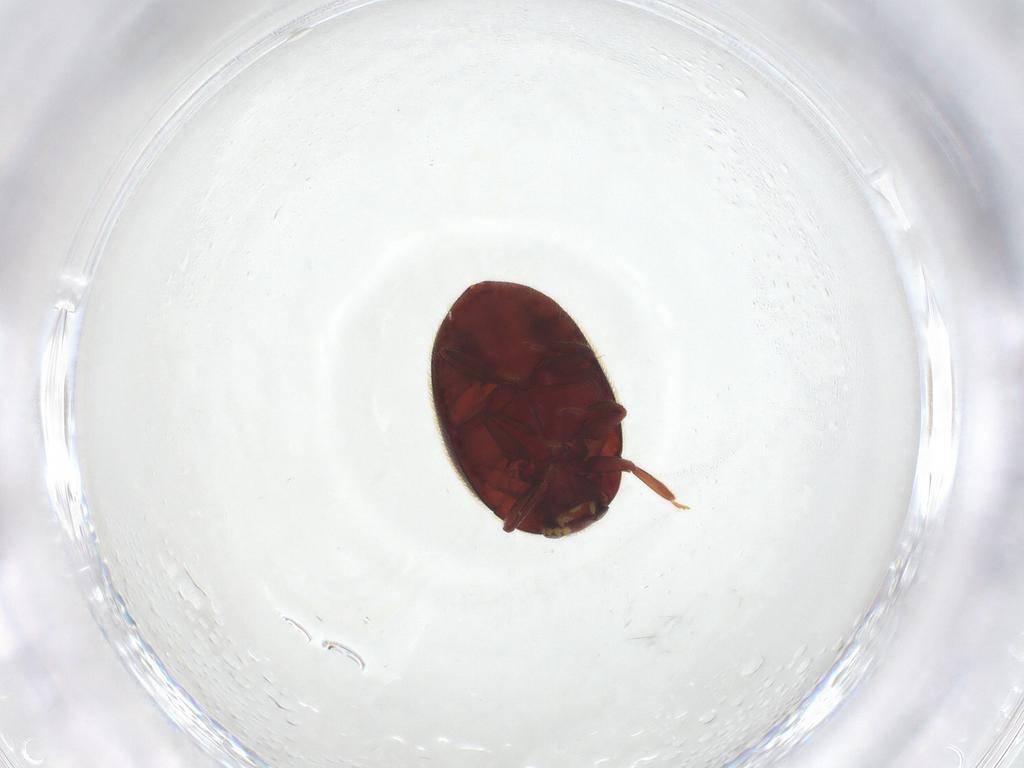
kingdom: Animalia
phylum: Arthropoda
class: Insecta
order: Coleoptera
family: Limnichidae
